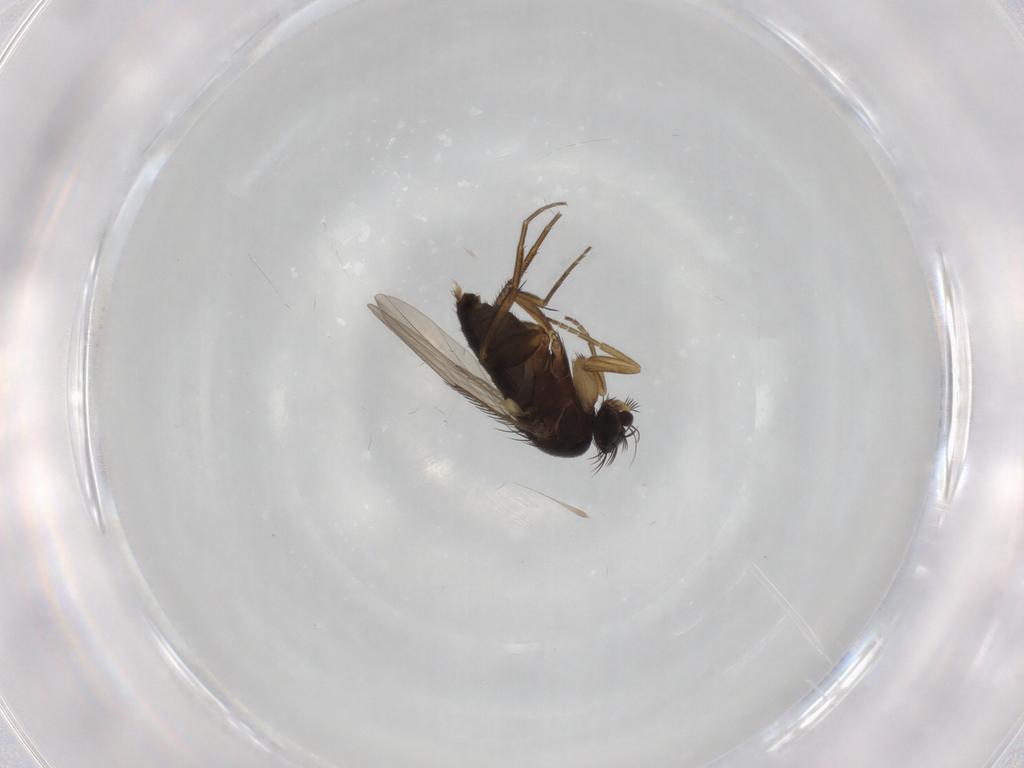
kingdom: Animalia
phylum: Arthropoda
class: Insecta
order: Diptera
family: Phoridae
